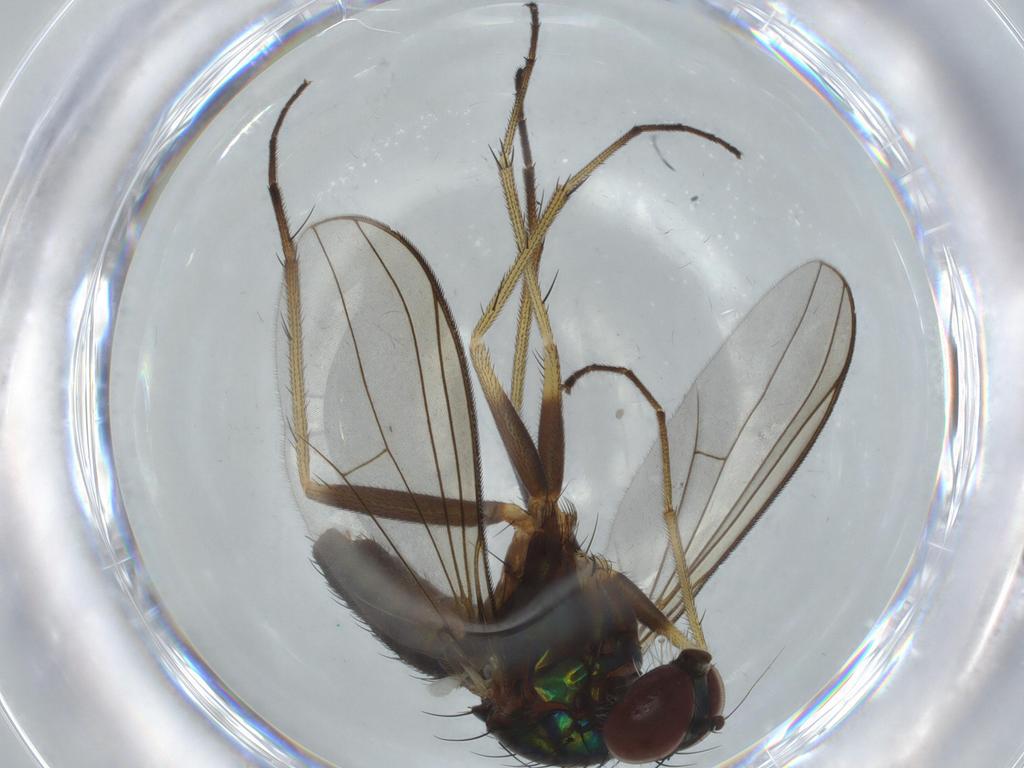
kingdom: Animalia
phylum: Arthropoda
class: Insecta
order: Diptera
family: Dolichopodidae
